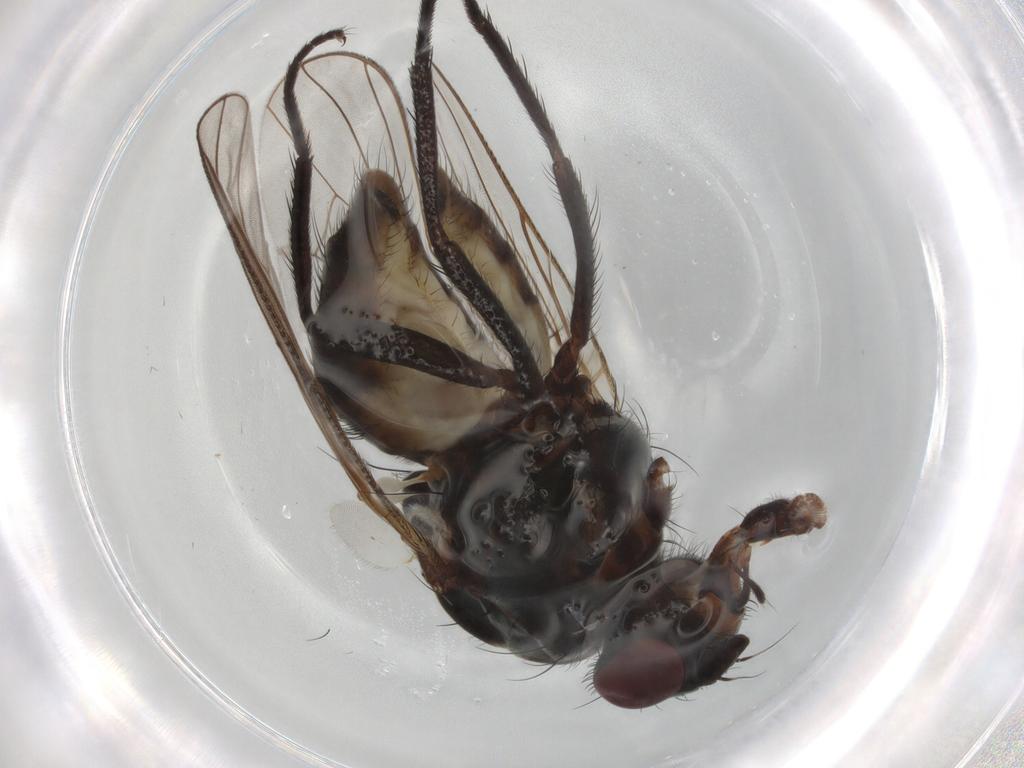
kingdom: Animalia
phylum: Arthropoda
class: Insecta
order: Diptera
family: Anthomyiidae
